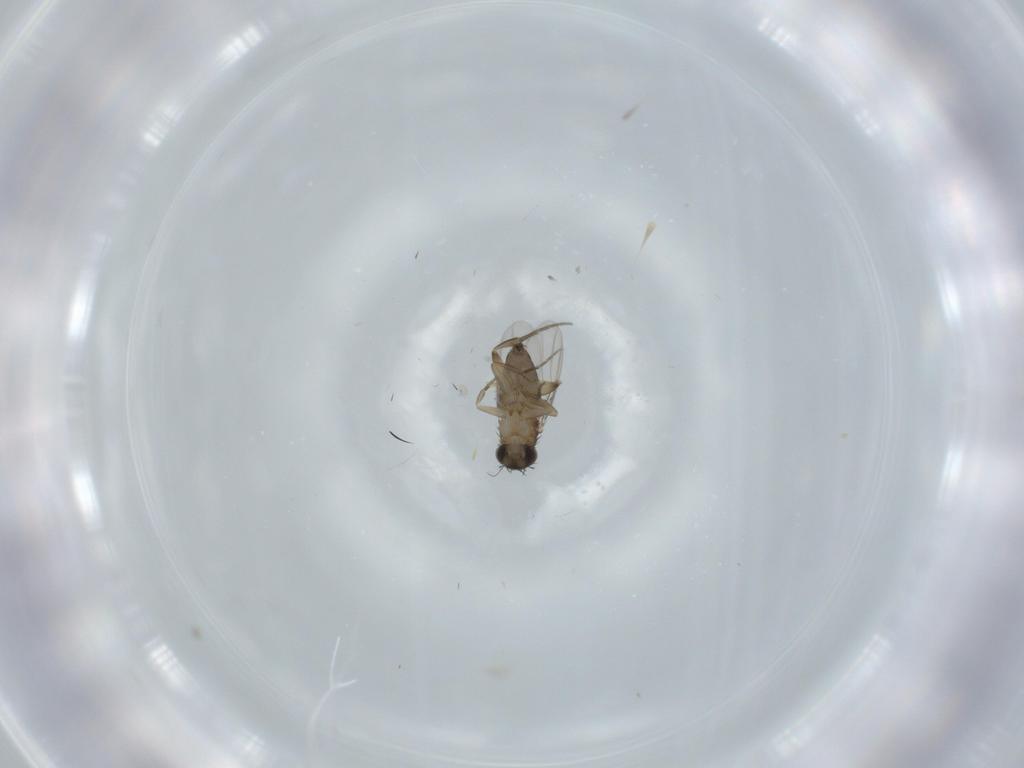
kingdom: Animalia
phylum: Arthropoda
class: Insecta
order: Diptera
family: Phoridae
